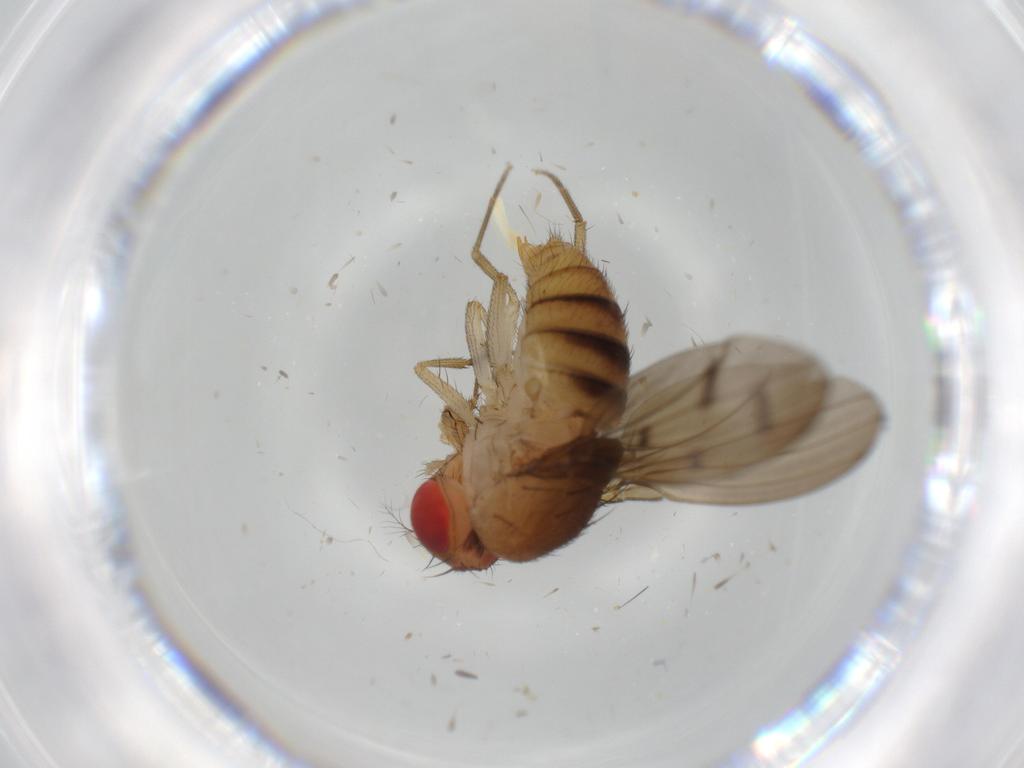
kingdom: Animalia
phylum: Arthropoda
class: Insecta
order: Diptera
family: Cecidomyiidae
